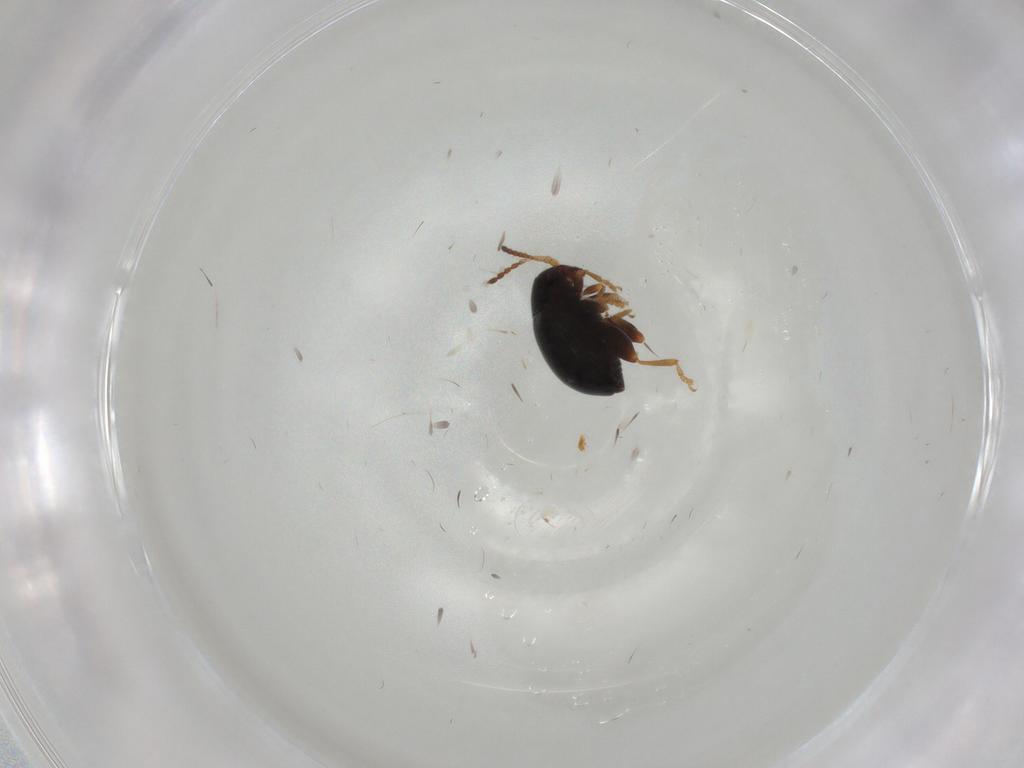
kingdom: Animalia
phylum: Arthropoda
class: Insecta
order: Coleoptera
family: Chrysomelidae
